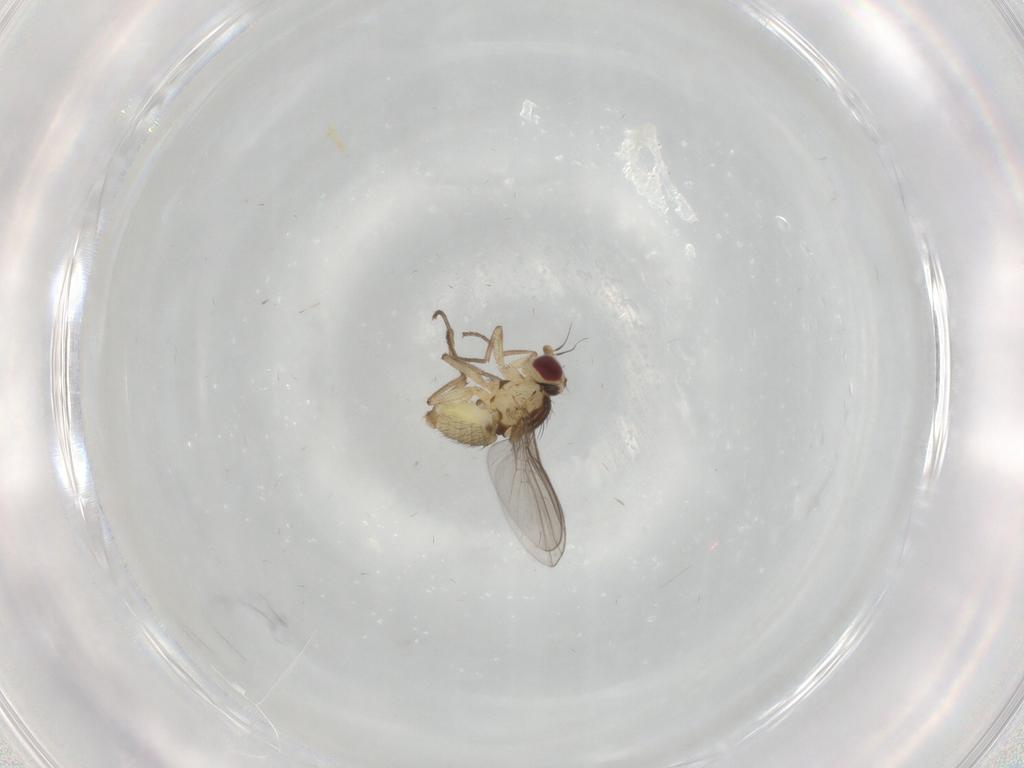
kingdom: Animalia
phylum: Arthropoda
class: Insecta
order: Diptera
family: Agromyzidae
